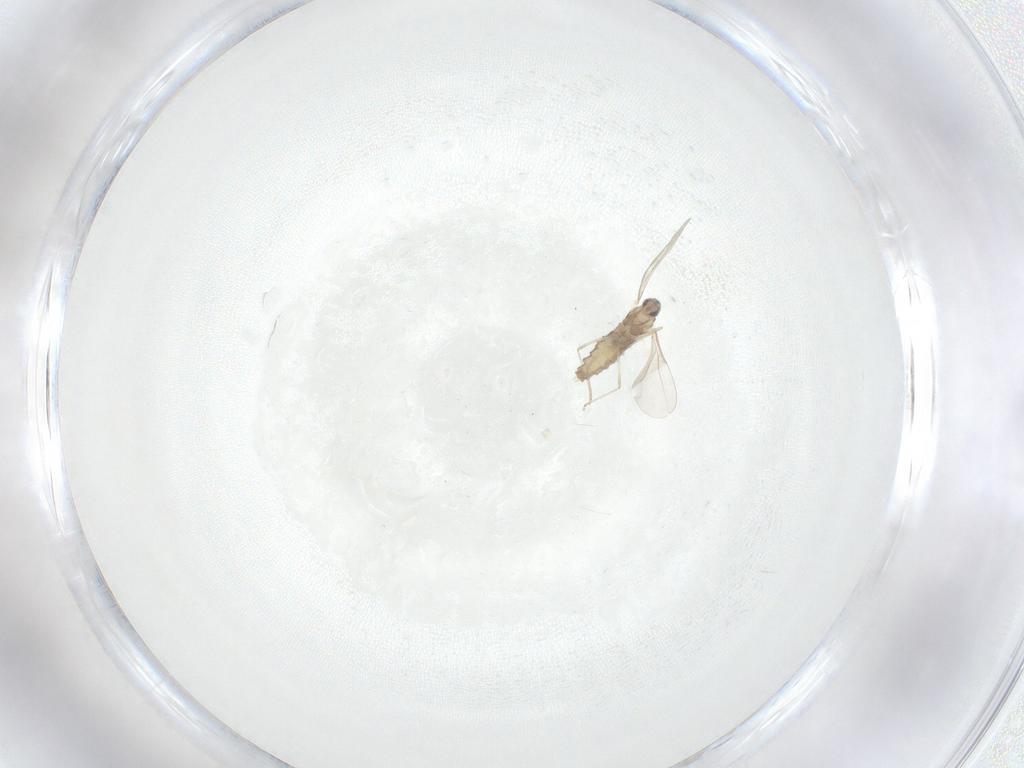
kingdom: Animalia
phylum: Arthropoda
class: Insecta
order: Diptera
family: Cecidomyiidae
